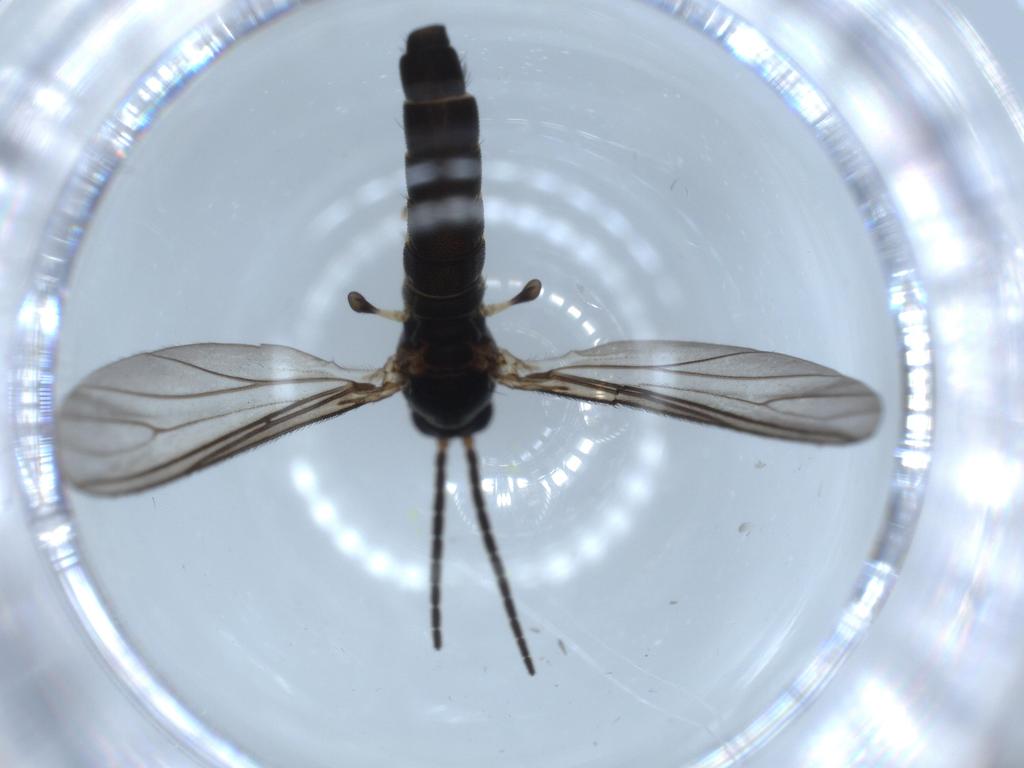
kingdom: Animalia
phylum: Arthropoda
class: Insecta
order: Diptera
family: Sciaridae
